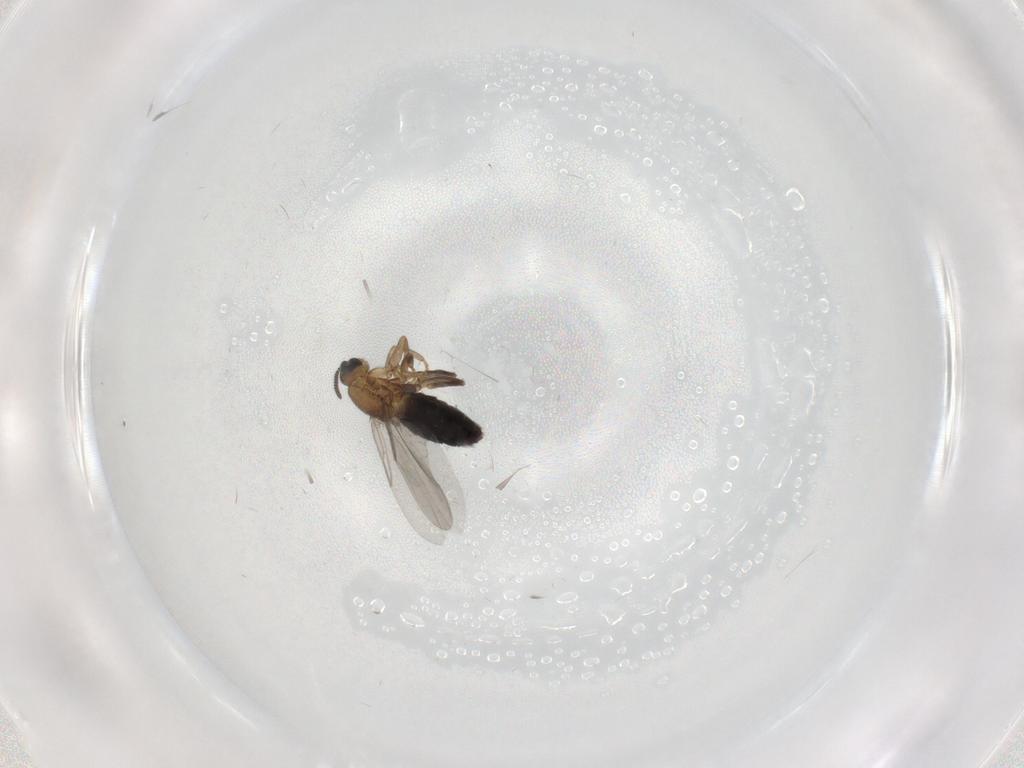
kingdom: Animalia
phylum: Arthropoda
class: Insecta
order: Diptera
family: Scatopsidae
